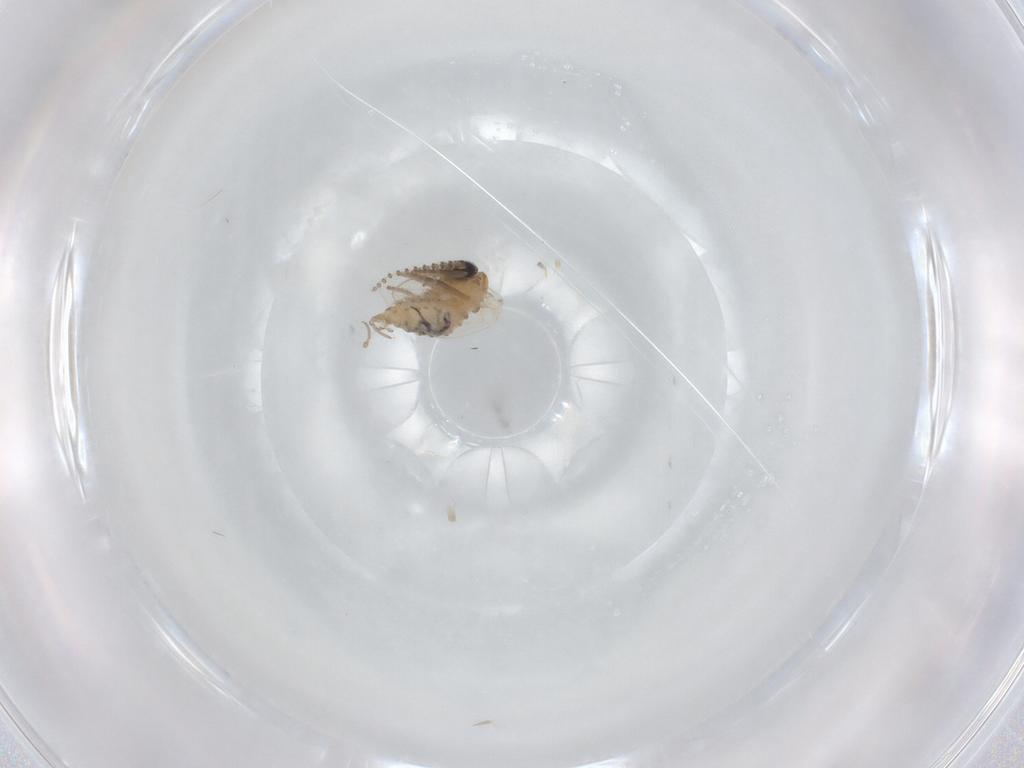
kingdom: Animalia
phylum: Arthropoda
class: Insecta
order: Diptera
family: Psychodidae
